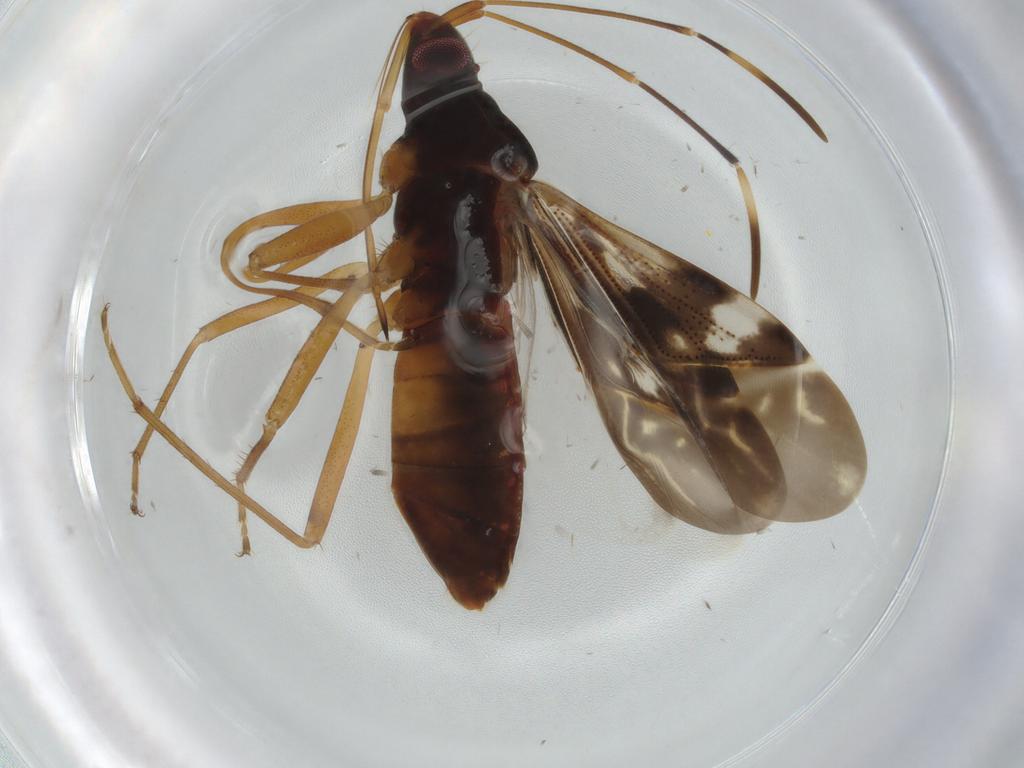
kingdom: Animalia
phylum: Arthropoda
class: Insecta
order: Hemiptera
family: Rhyparochromidae
